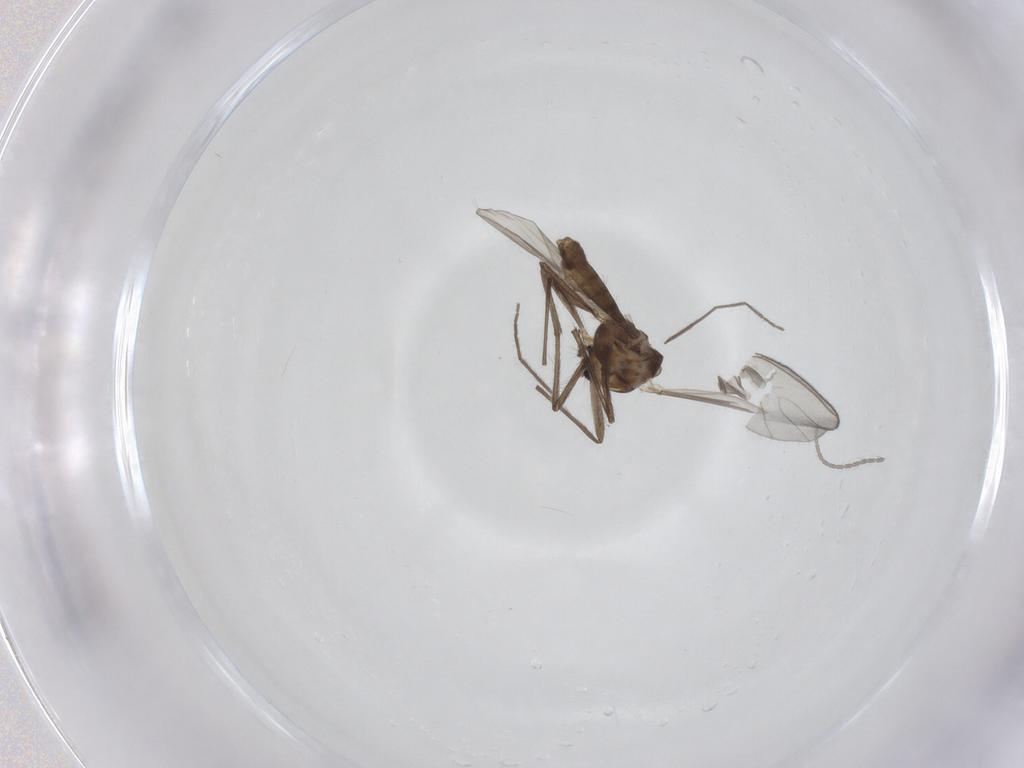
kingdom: Animalia
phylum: Arthropoda
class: Insecta
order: Diptera
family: Chironomidae
